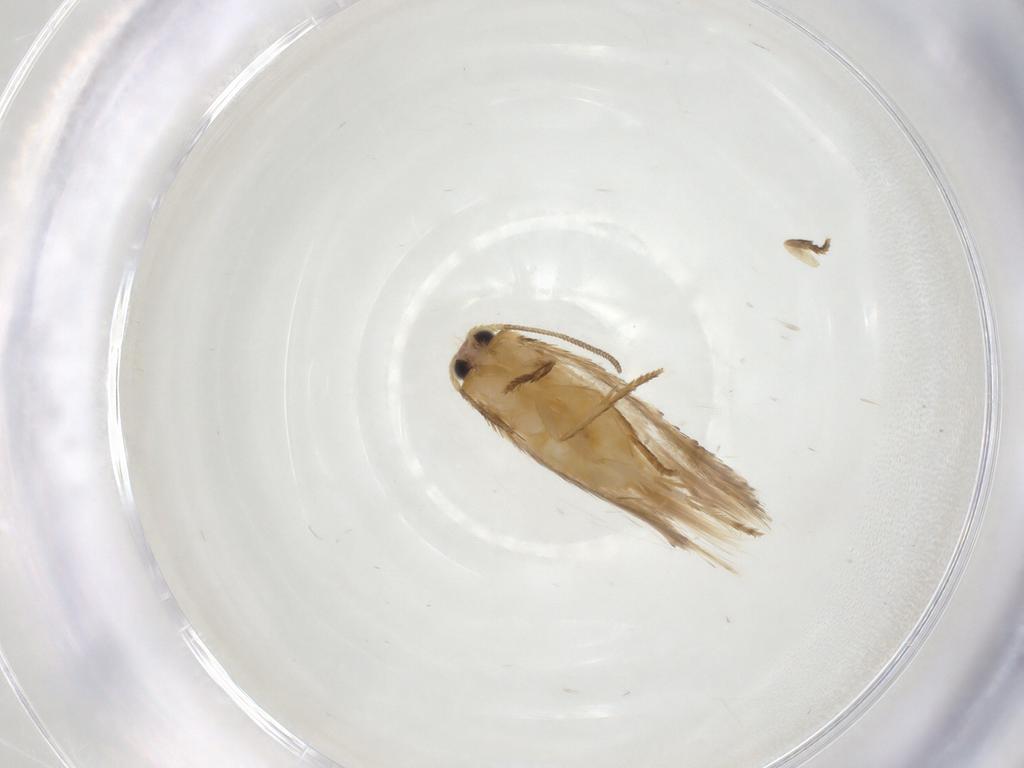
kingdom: Animalia
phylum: Arthropoda
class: Insecta
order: Lepidoptera
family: Nepticulidae
